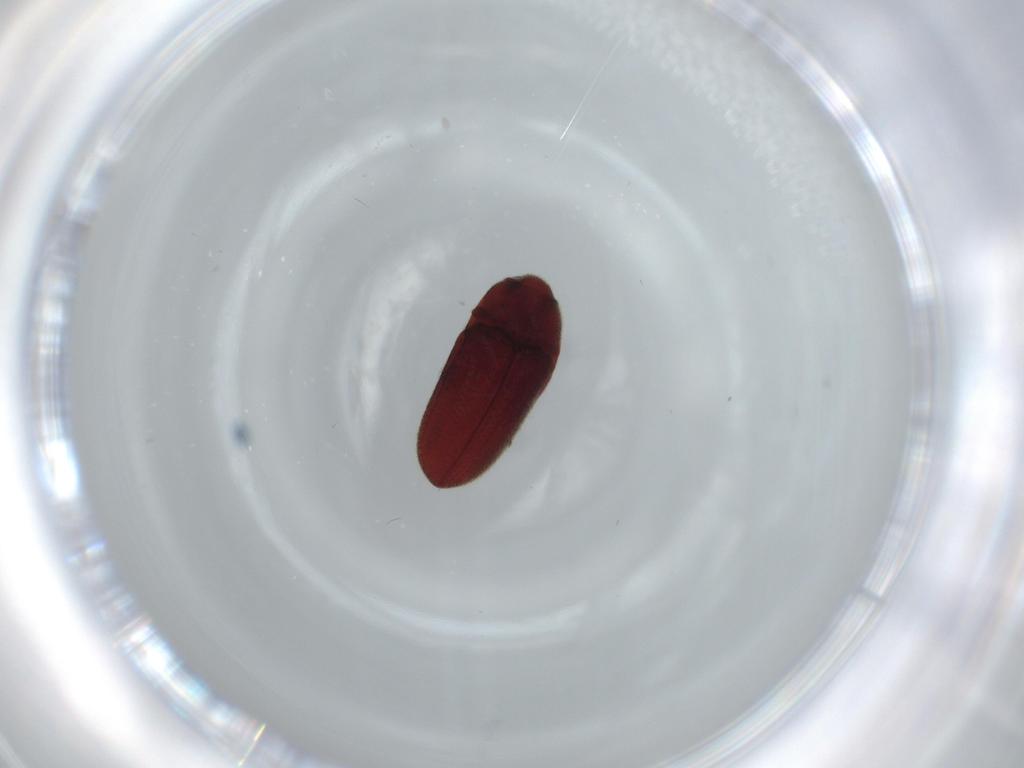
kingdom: Animalia
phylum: Arthropoda
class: Insecta
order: Coleoptera
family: Throscidae
